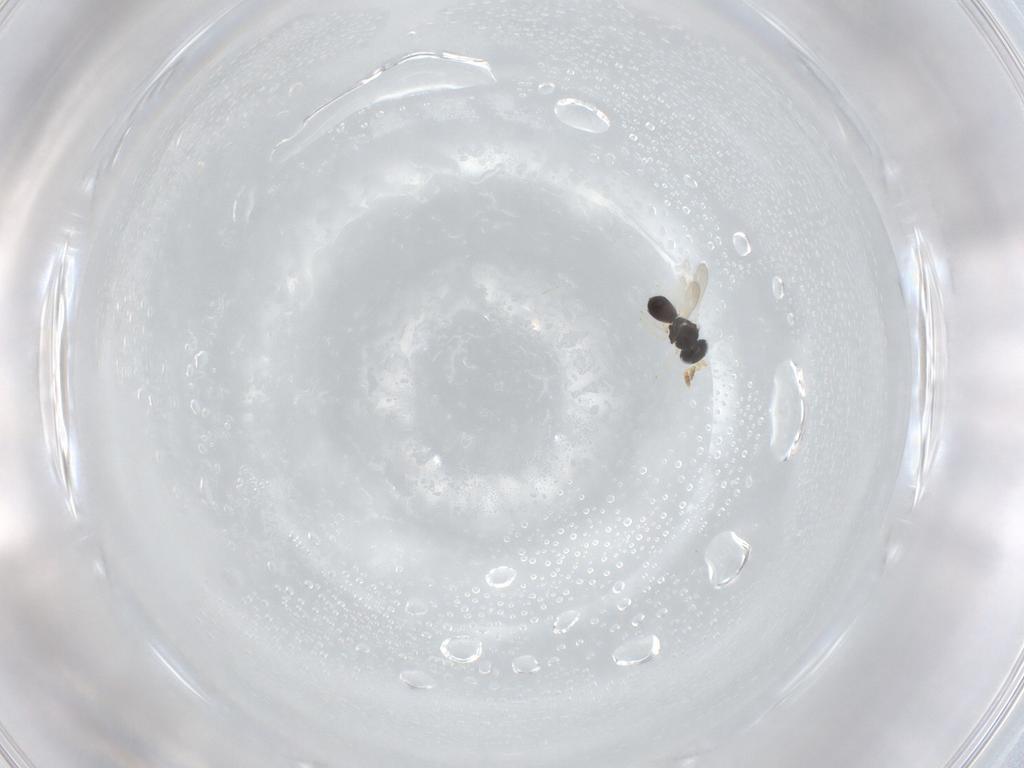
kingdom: Animalia
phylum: Arthropoda
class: Insecta
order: Hymenoptera
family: Scelionidae
